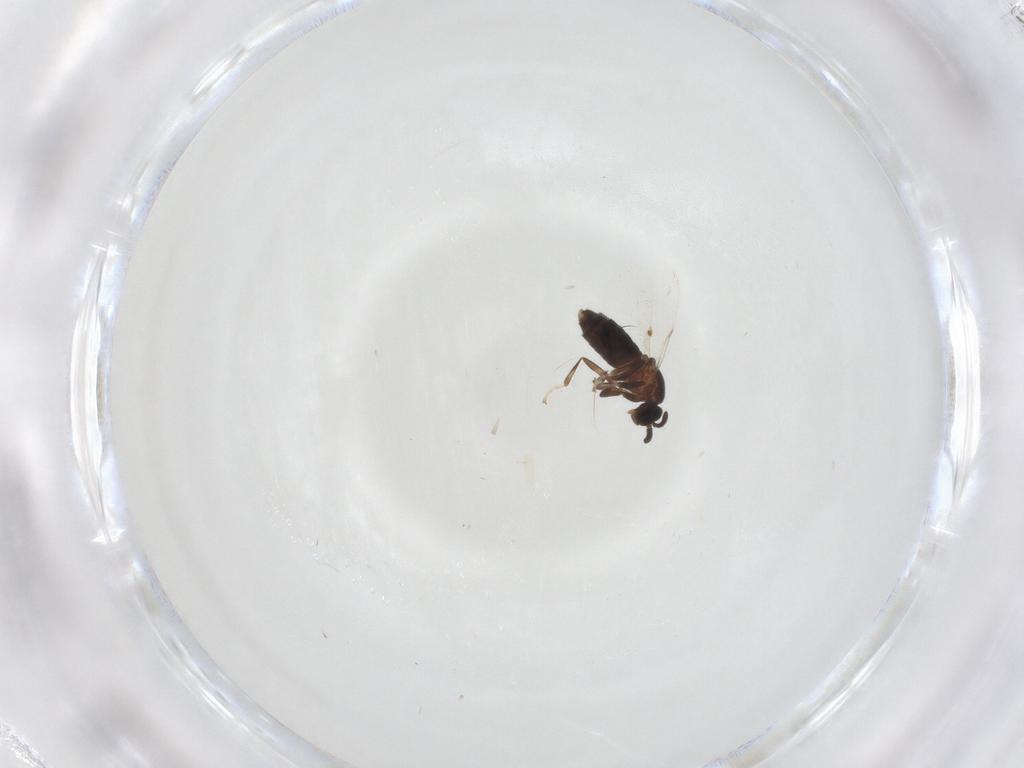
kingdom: Animalia
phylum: Arthropoda
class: Insecta
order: Diptera
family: Scatopsidae
